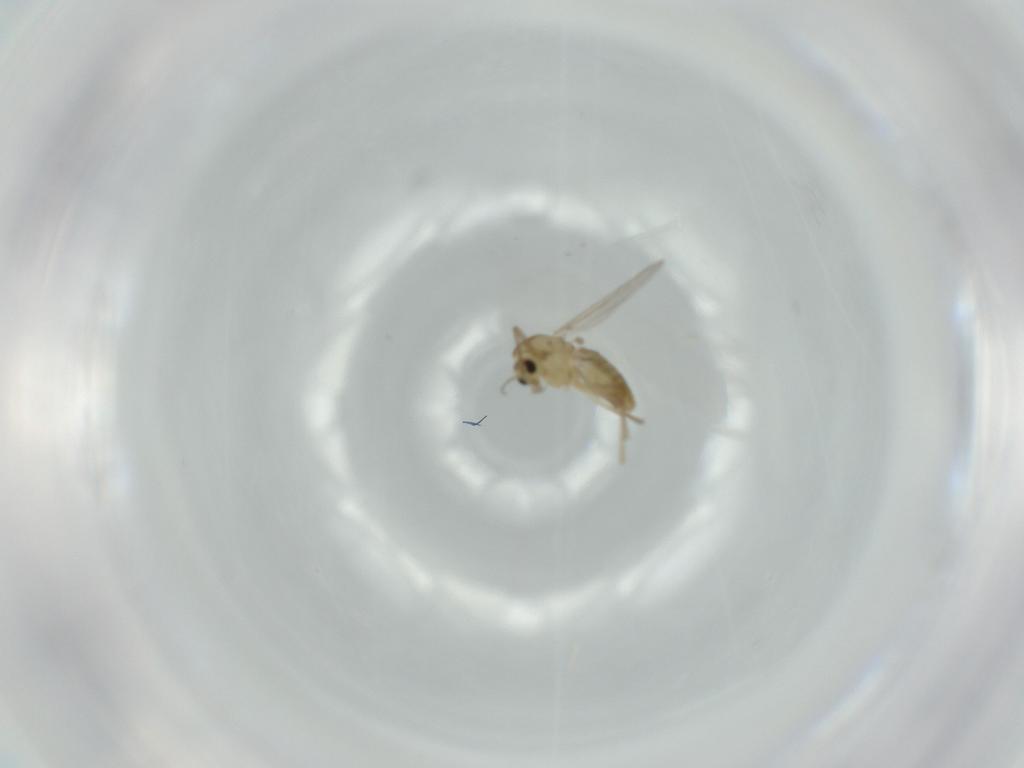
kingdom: Animalia
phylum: Arthropoda
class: Insecta
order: Diptera
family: Chironomidae
